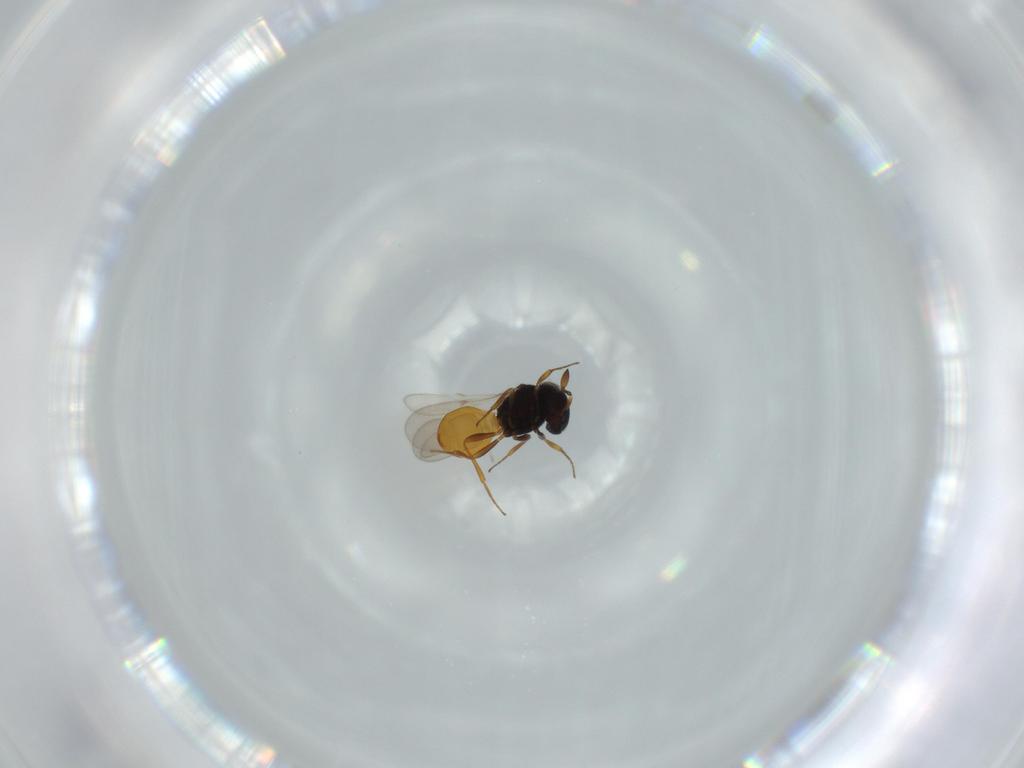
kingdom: Animalia
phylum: Arthropoda
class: Insecta
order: Hymenoptera
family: Scelionidae
